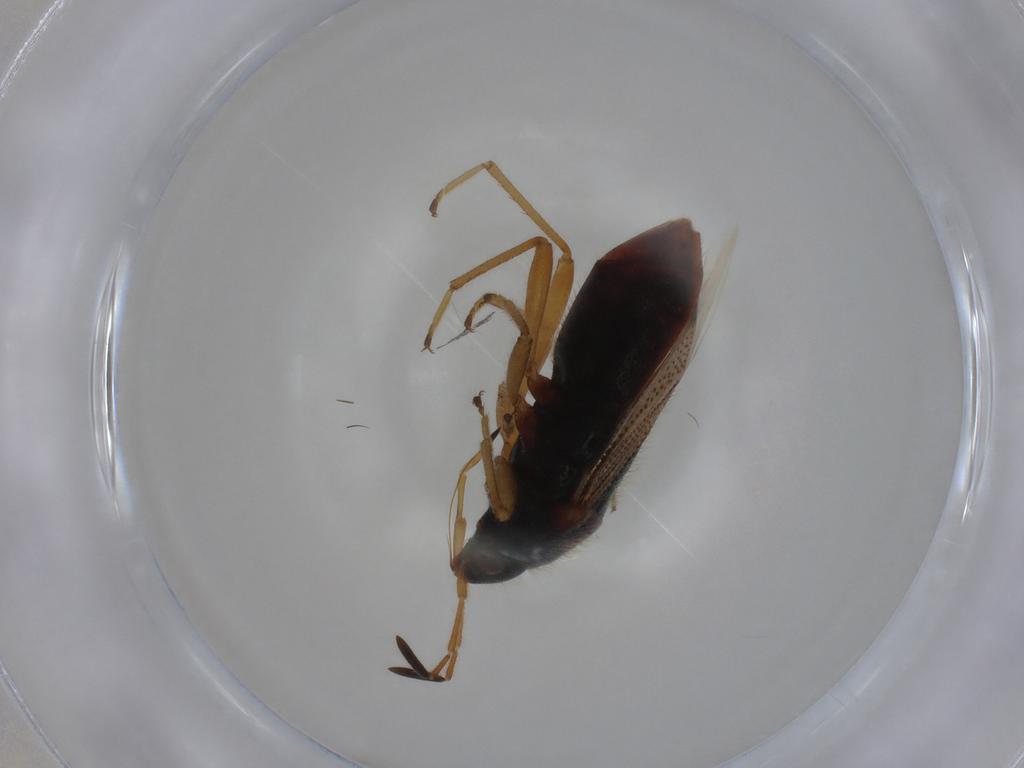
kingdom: Animalia
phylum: Arthropoda
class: Insecta
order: Hemiptera
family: Rhyparochromidae
